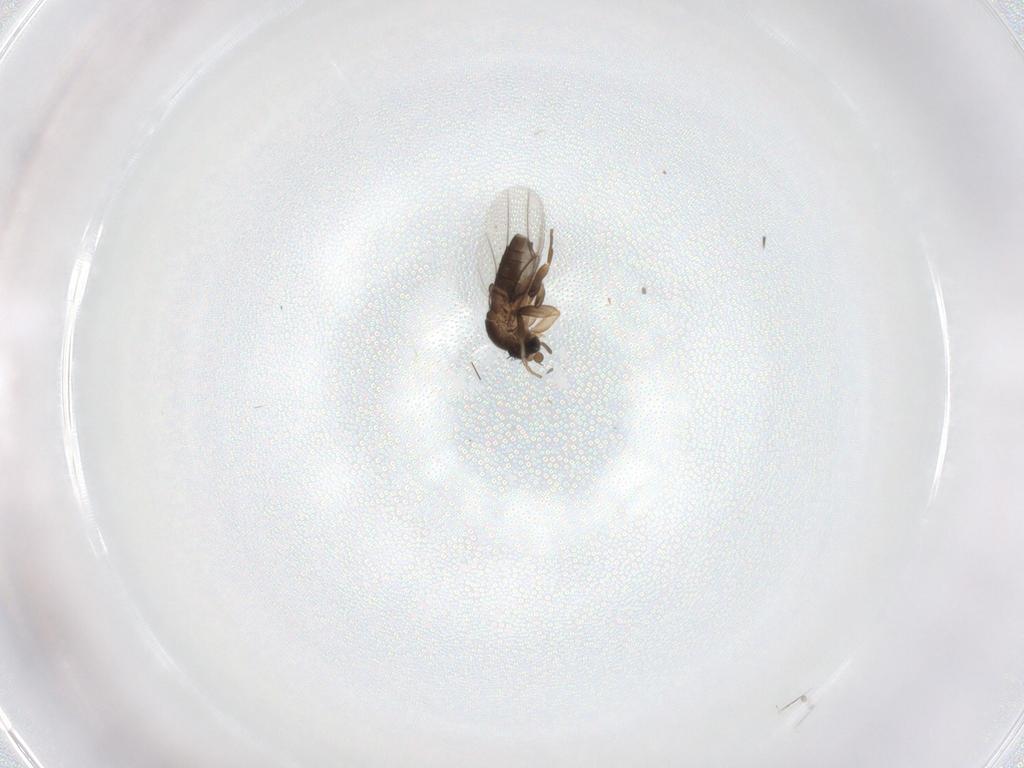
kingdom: Animalia
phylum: Arthropoda
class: Insecta
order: Diptera
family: Phoridae
